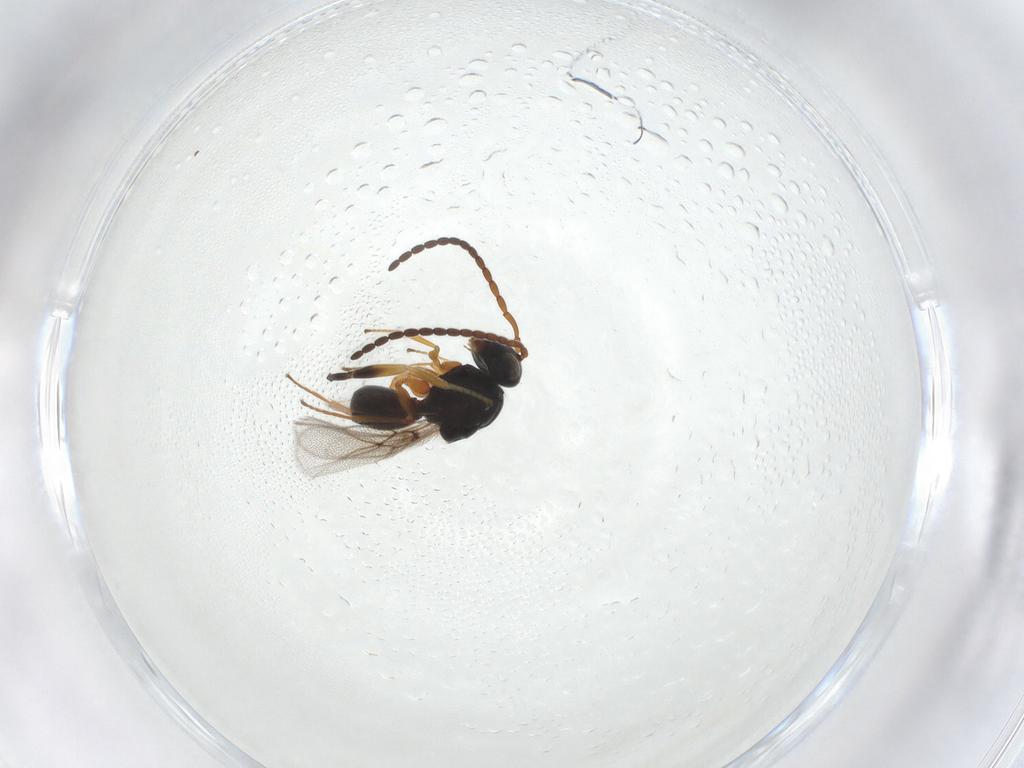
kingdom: Animalia
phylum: Arthropoda
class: Insecta
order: Hymenoptera
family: Braconidae
